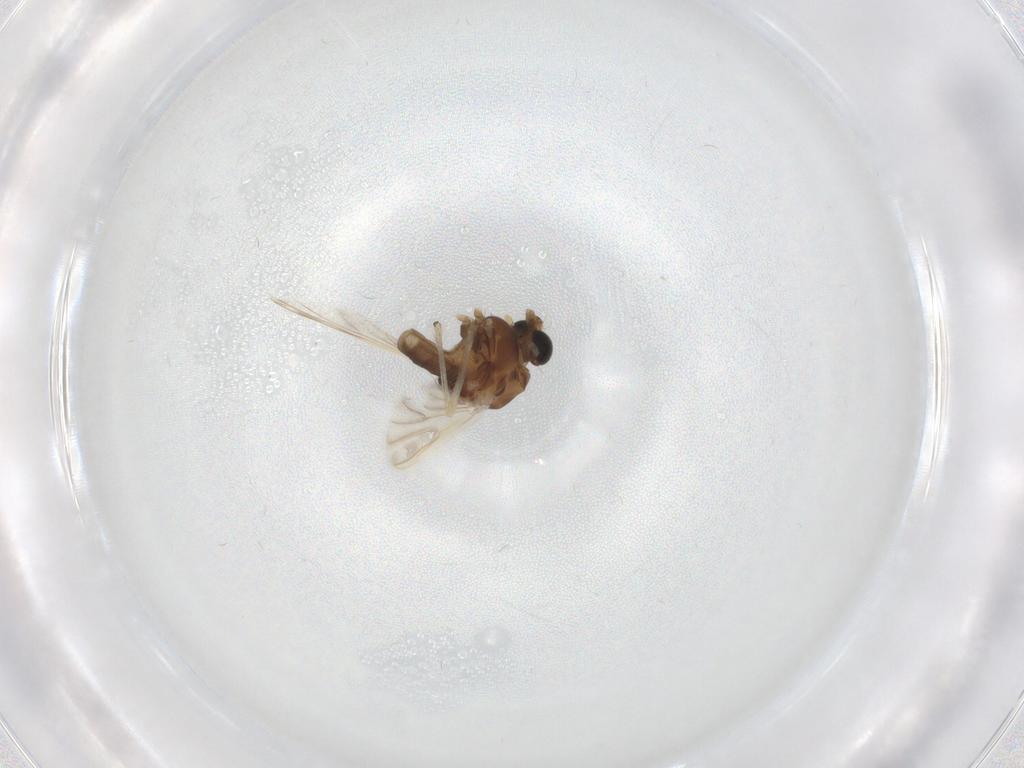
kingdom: Animalia
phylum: Arthropoda
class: Insecta
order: Diptera
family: Chironomidae
